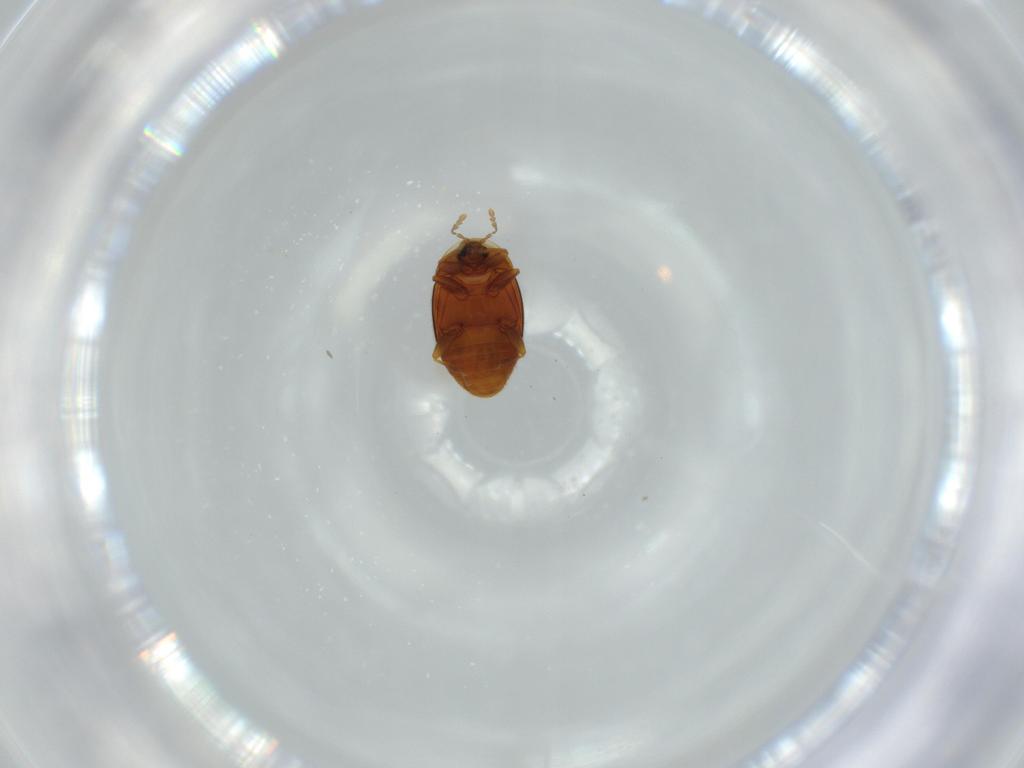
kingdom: Animalia
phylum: Arthropoda
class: Insecta
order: Coleoptera
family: Corylophidae
